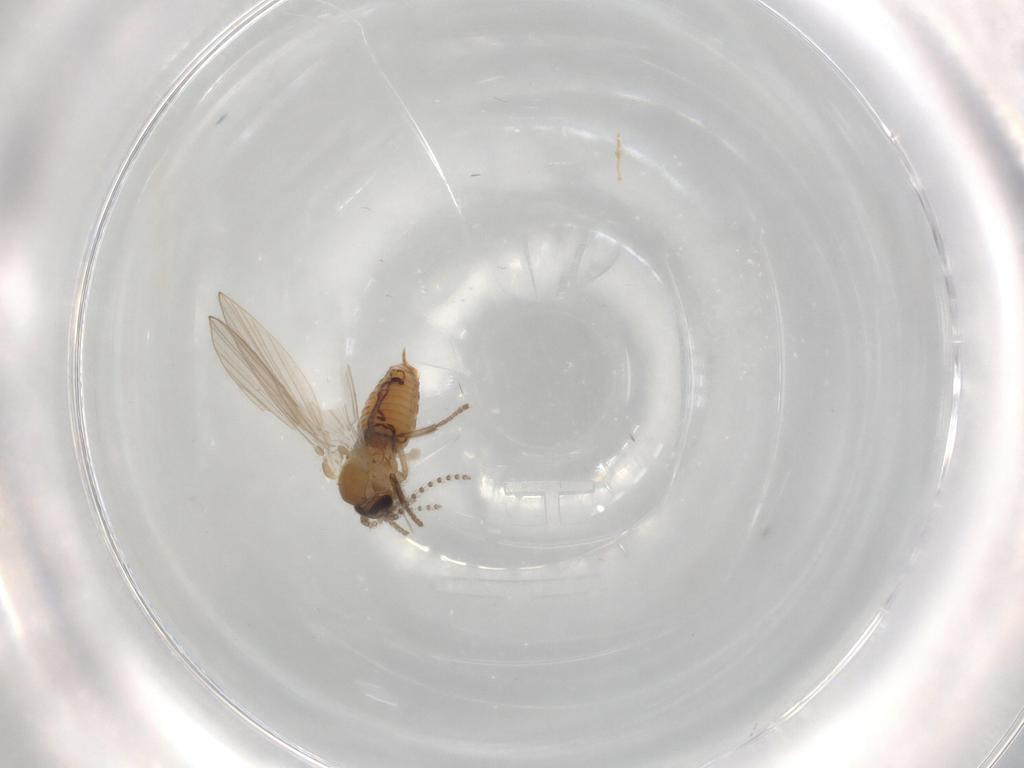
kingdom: Animalia
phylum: Arthropoda
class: Insecta
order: Diptera
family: Psychodidae
